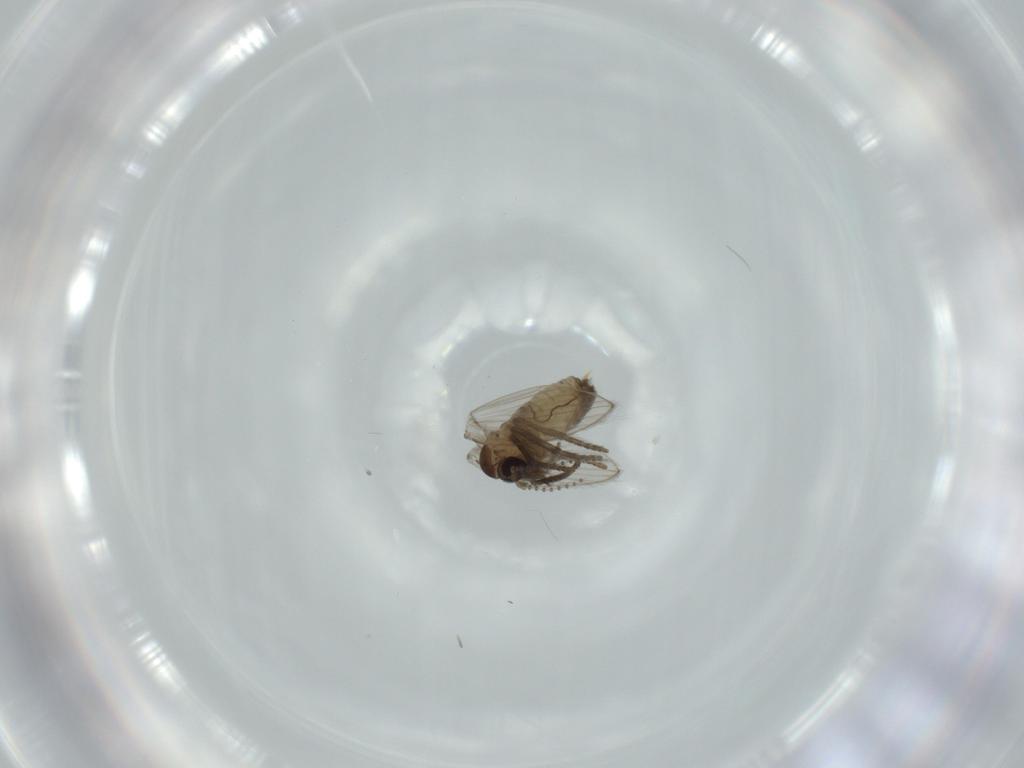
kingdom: Animalia
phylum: Arthropoda
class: Insecta
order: Diptera
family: Psychodidae
